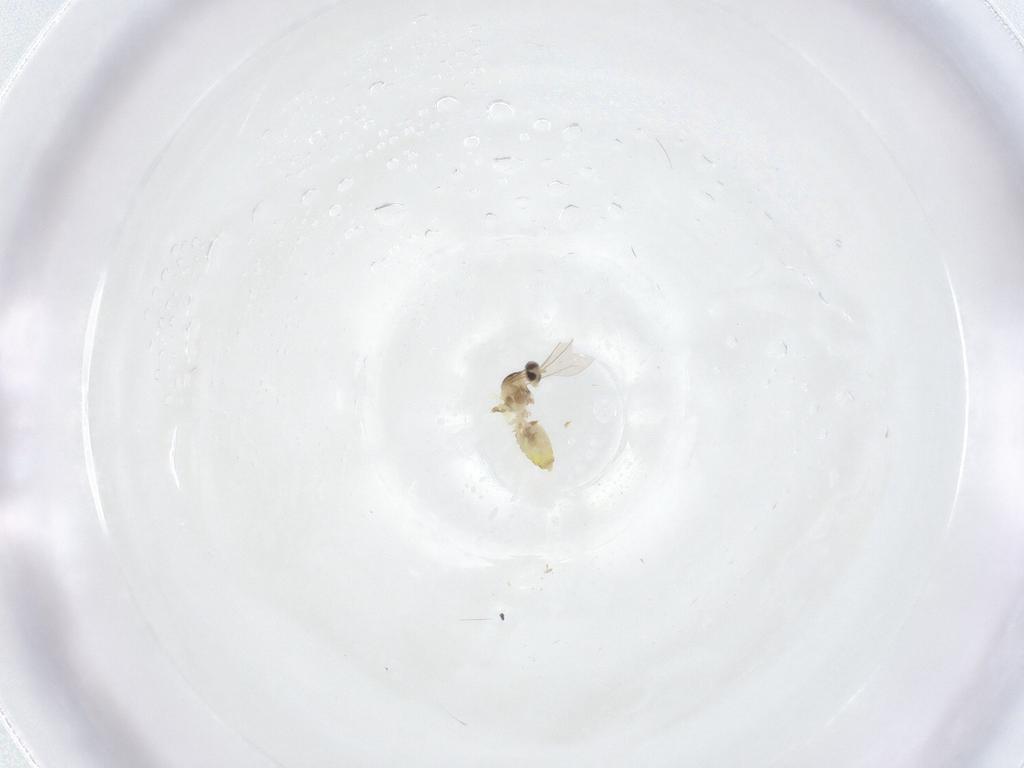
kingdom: Animalia
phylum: Arthropoda
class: Insecta
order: Diptera
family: Cecidomyiidae
